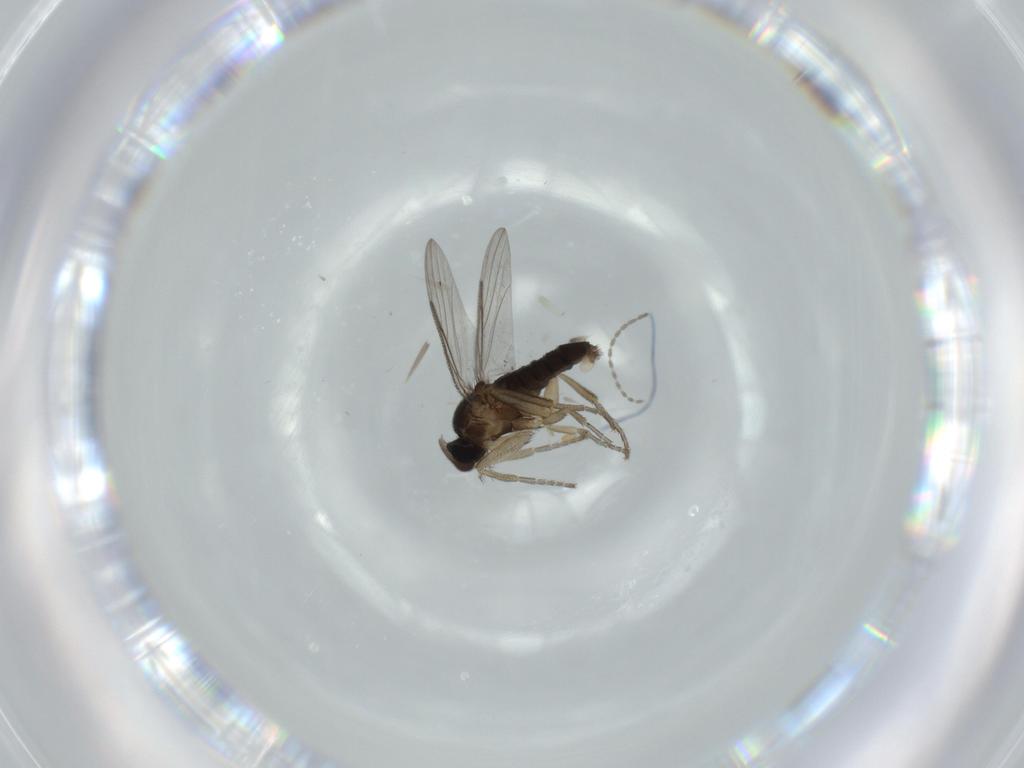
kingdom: Animalia
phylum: Arthropoda
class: Insecta
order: Diptera
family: Phoridae
